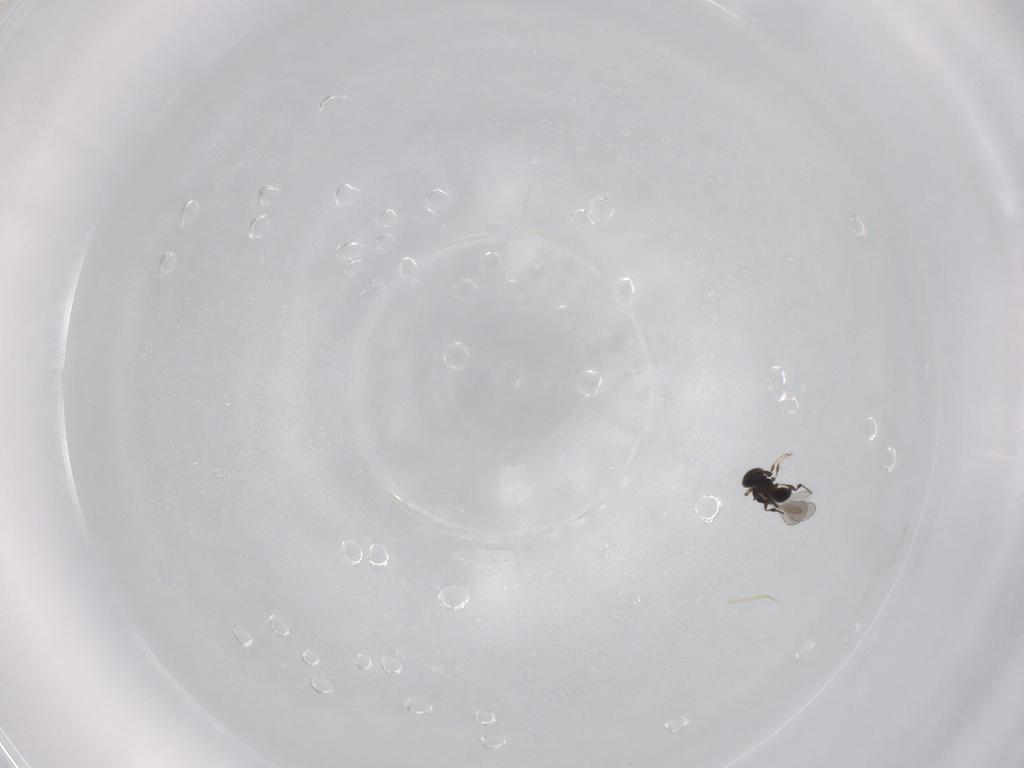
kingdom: Animalia
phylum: Arthropoda
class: Insecta
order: Hymenoptera
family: Platygastridae
